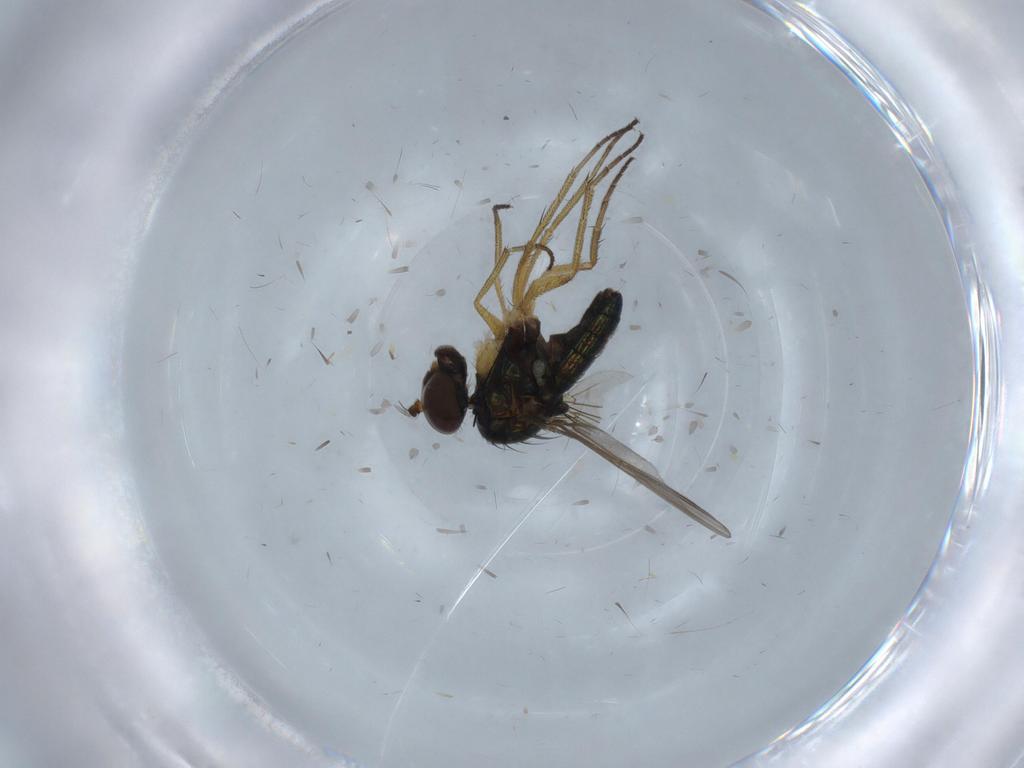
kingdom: Animalia
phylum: Arthropoda
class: Insecta
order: Diptera
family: Dolichopodidae
